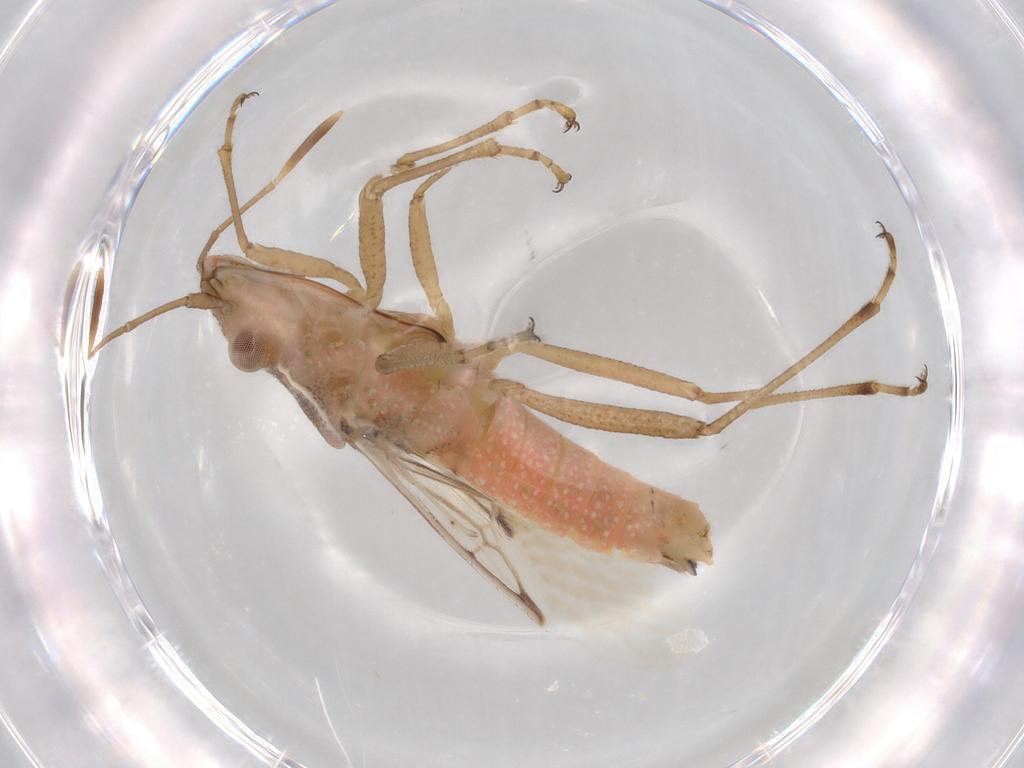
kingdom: Animalia
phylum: Arthropoda
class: Insecta
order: Hemiptera
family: Rhopalidae
